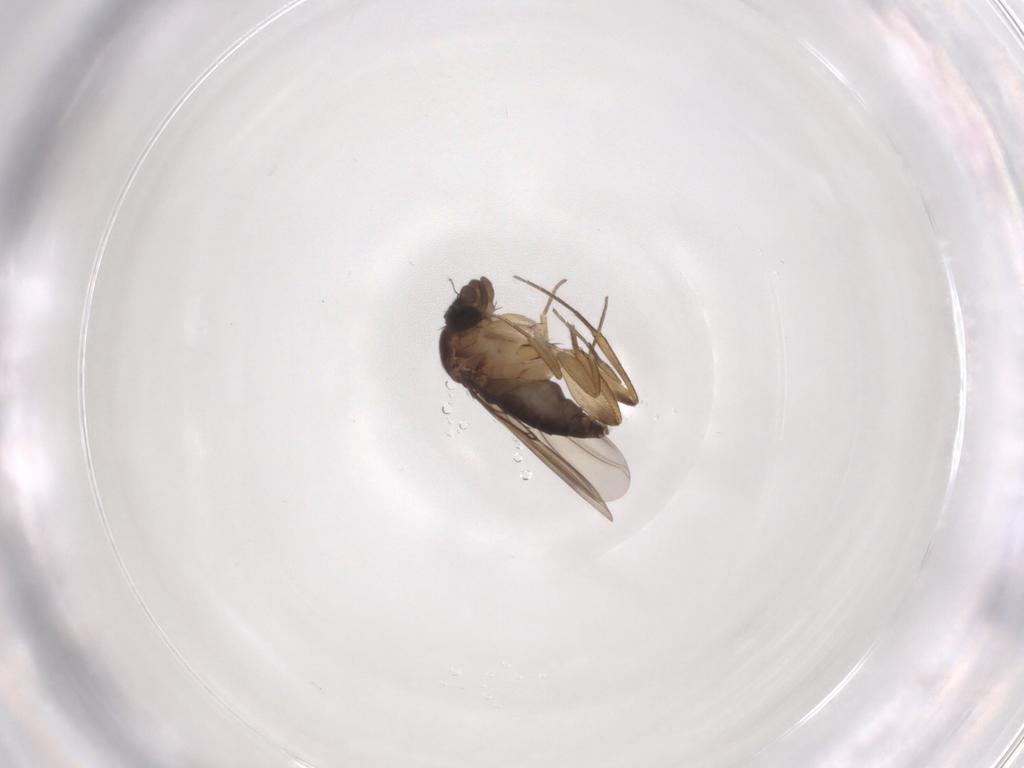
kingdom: Animalia
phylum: Arthropoda
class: Insecta
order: Diptera
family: Phoridae
